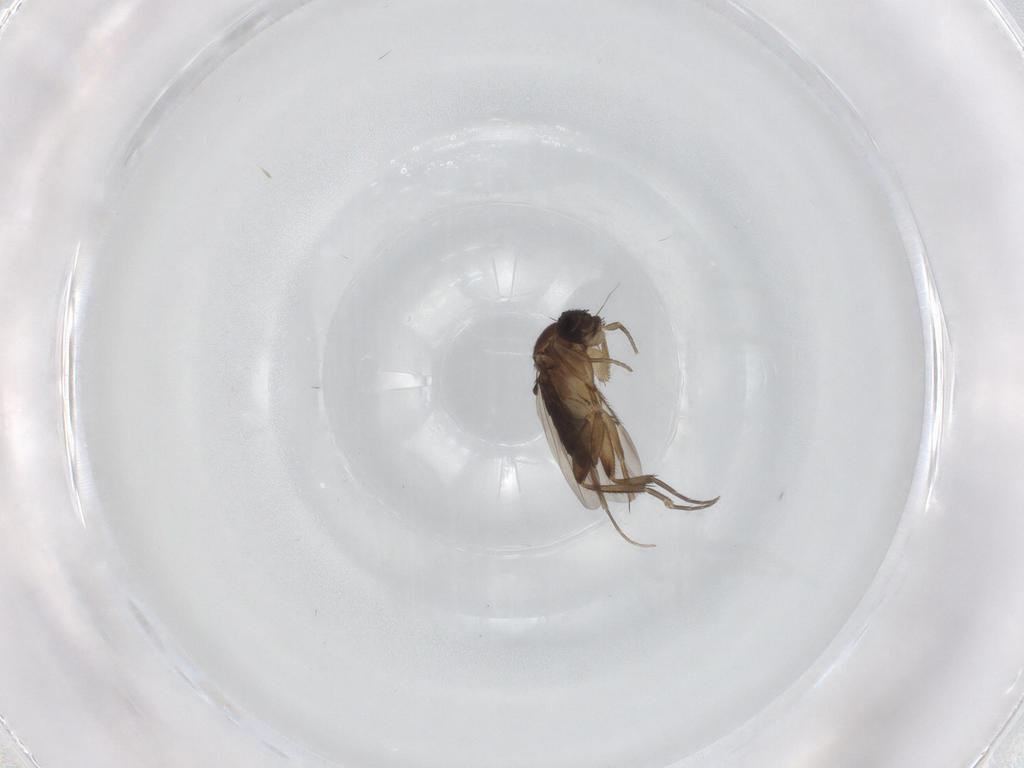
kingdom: Animalia
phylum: Arthropoda
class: Insecta
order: Diptera
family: Phoridae
